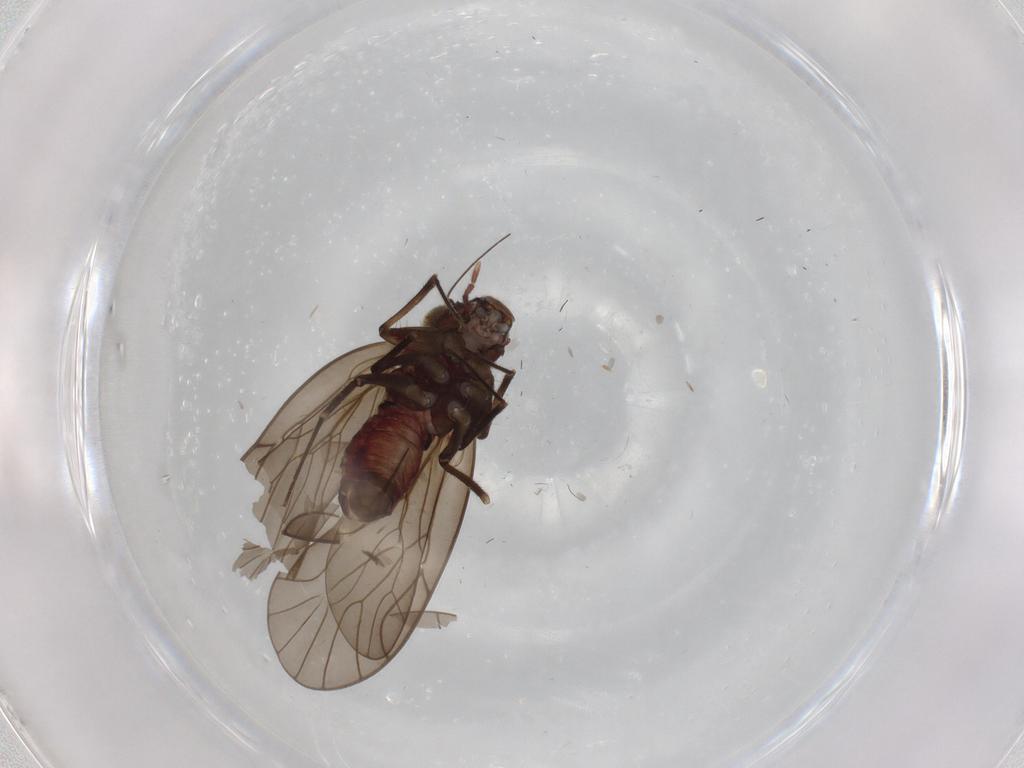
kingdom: Animalia
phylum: Arthropoda
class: Insecta
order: Psocodea
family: Philotarsidae
